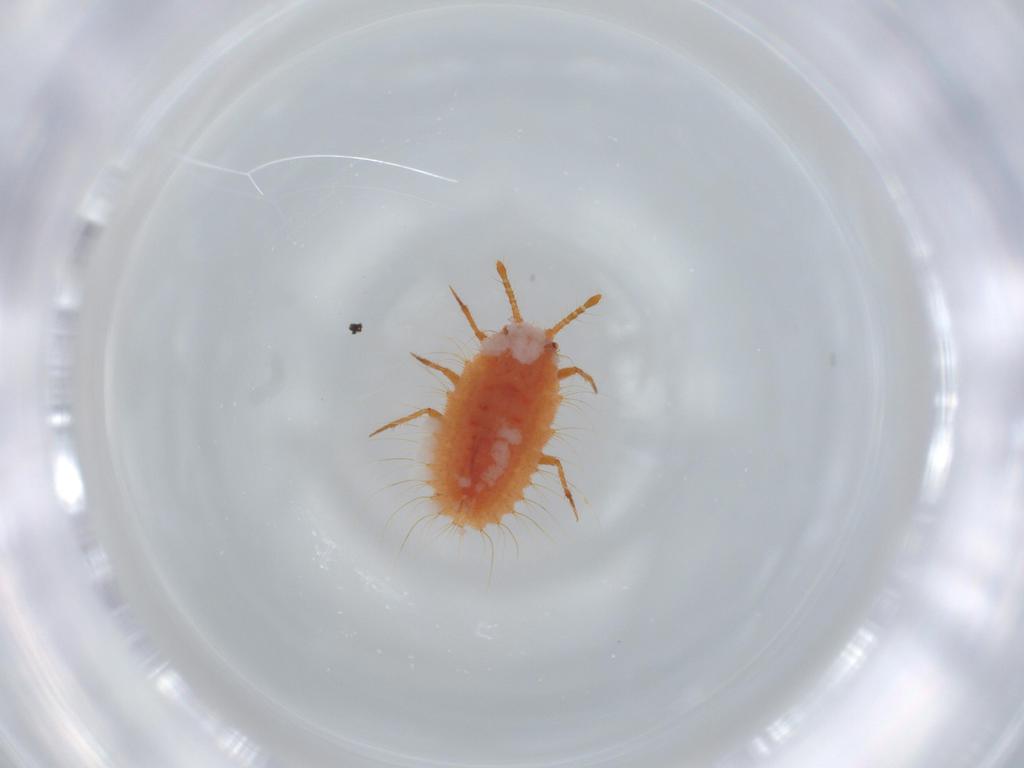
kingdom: Animalia
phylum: Arthropoda
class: Insecta
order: Hemiptera
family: Coccoidea_incertae_sedis
